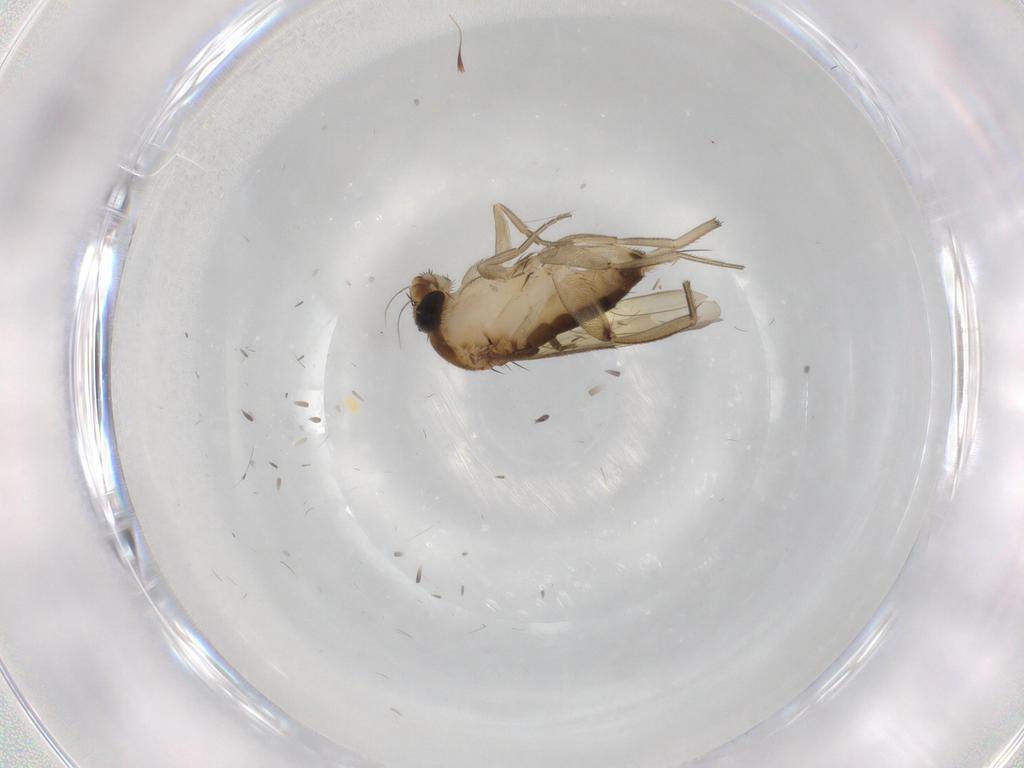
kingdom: Animalia
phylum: Arthropoda
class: Insecta
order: Diptera
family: Phoridae
